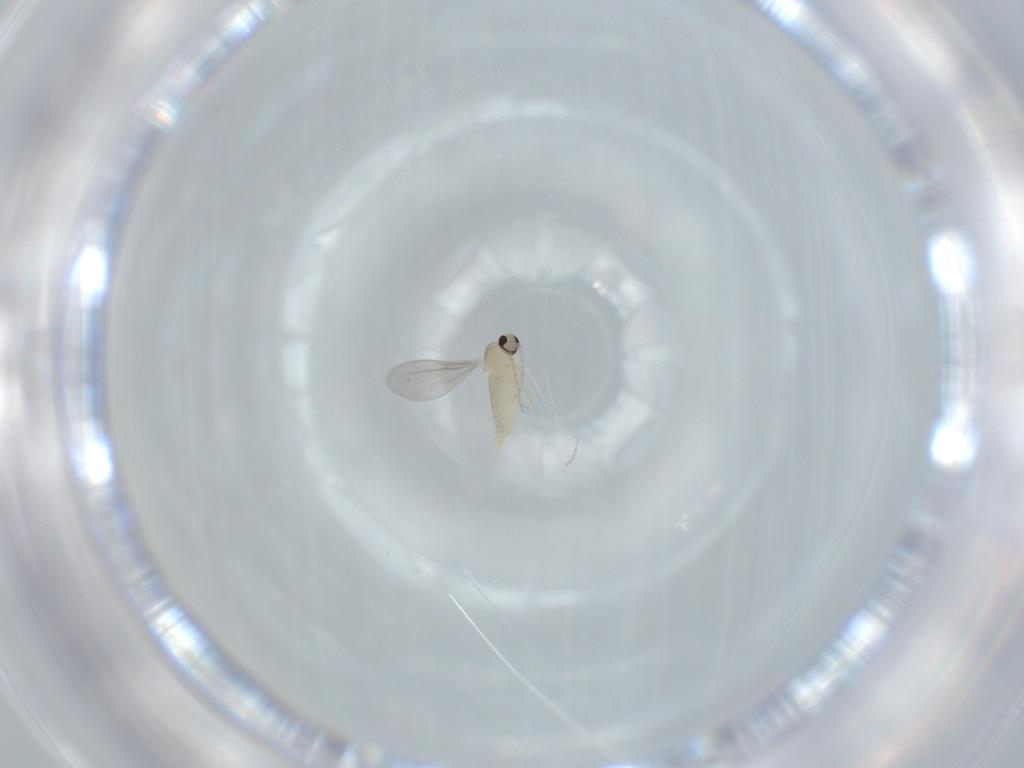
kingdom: Animalia
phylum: Arthropoda
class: Insecta
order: Diptera
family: Cecidomyiidae
